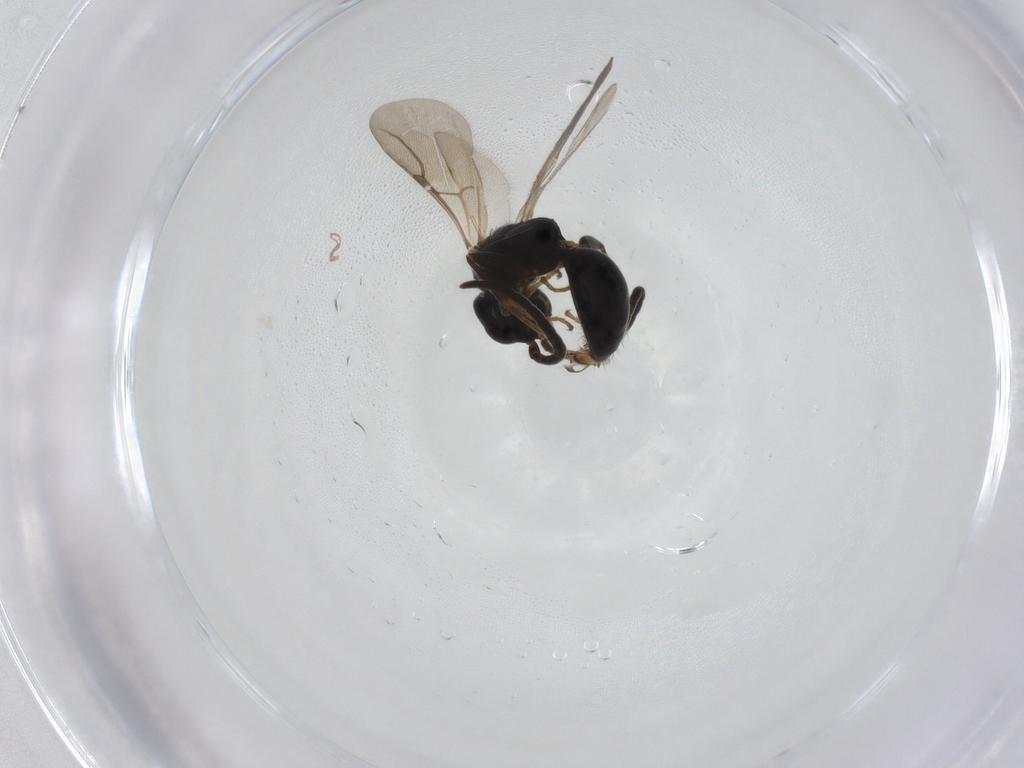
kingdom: Animalia
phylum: Arthropoda
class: Insecta
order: Hymenoptera
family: Bethylidae
